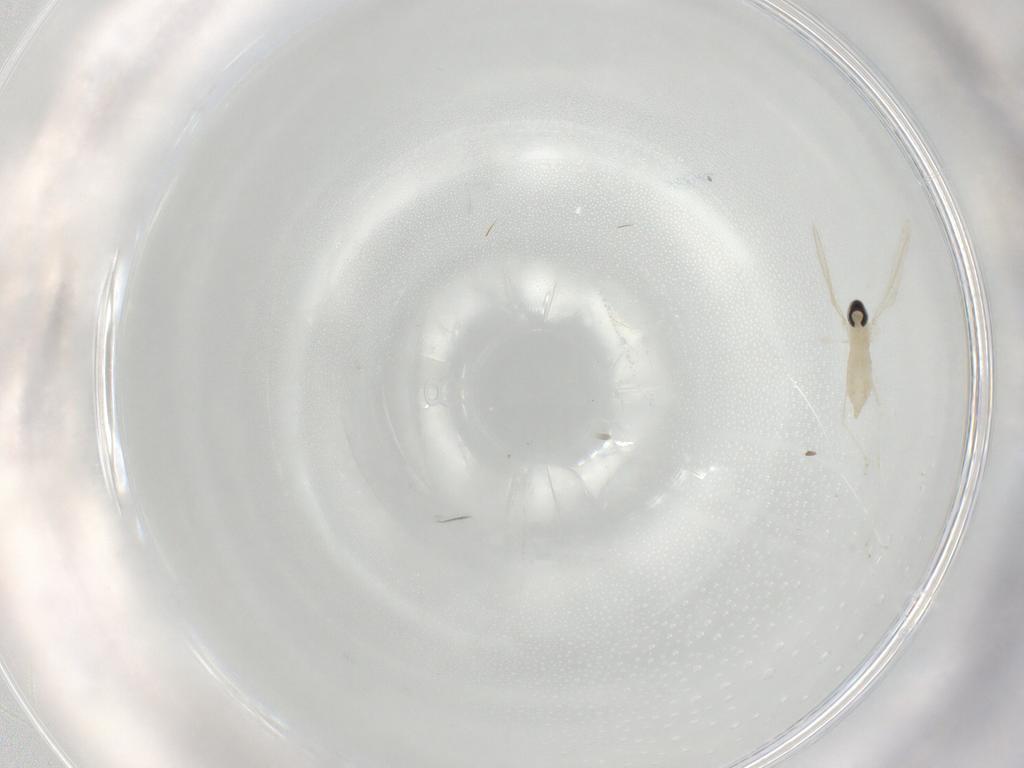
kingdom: Animalia
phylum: Arthropoda
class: Insecta
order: Diptera
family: Cecidomyiidae
